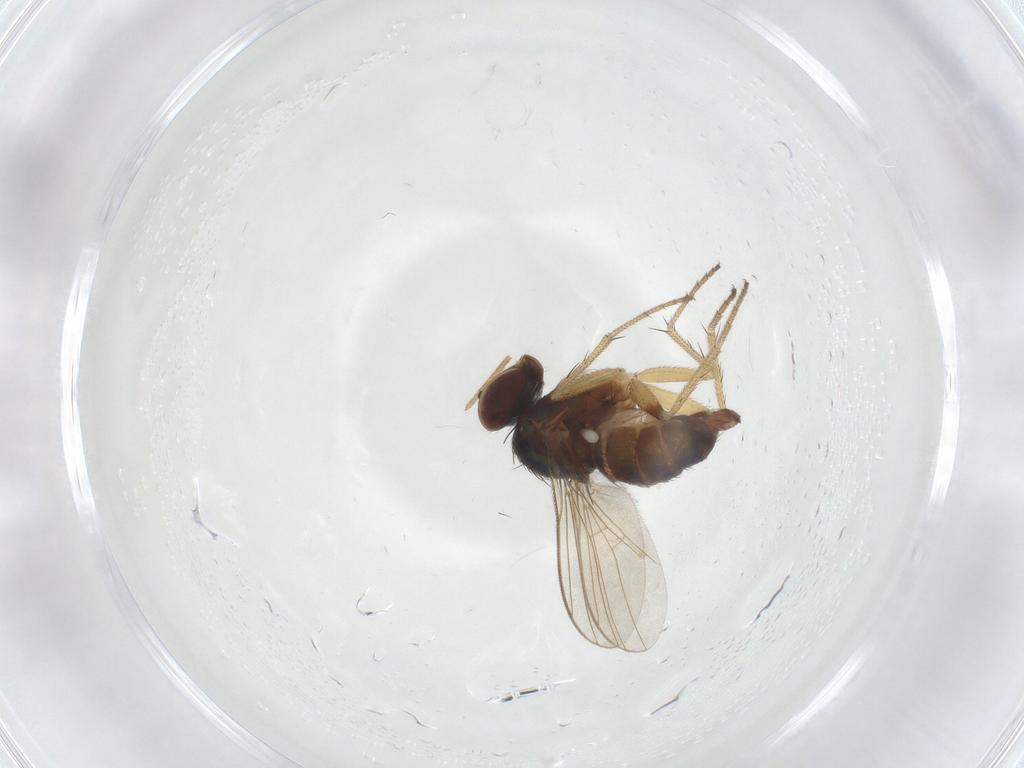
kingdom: Animalia
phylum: Arthropoda
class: Insecta
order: Diptera
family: Chironomidae
